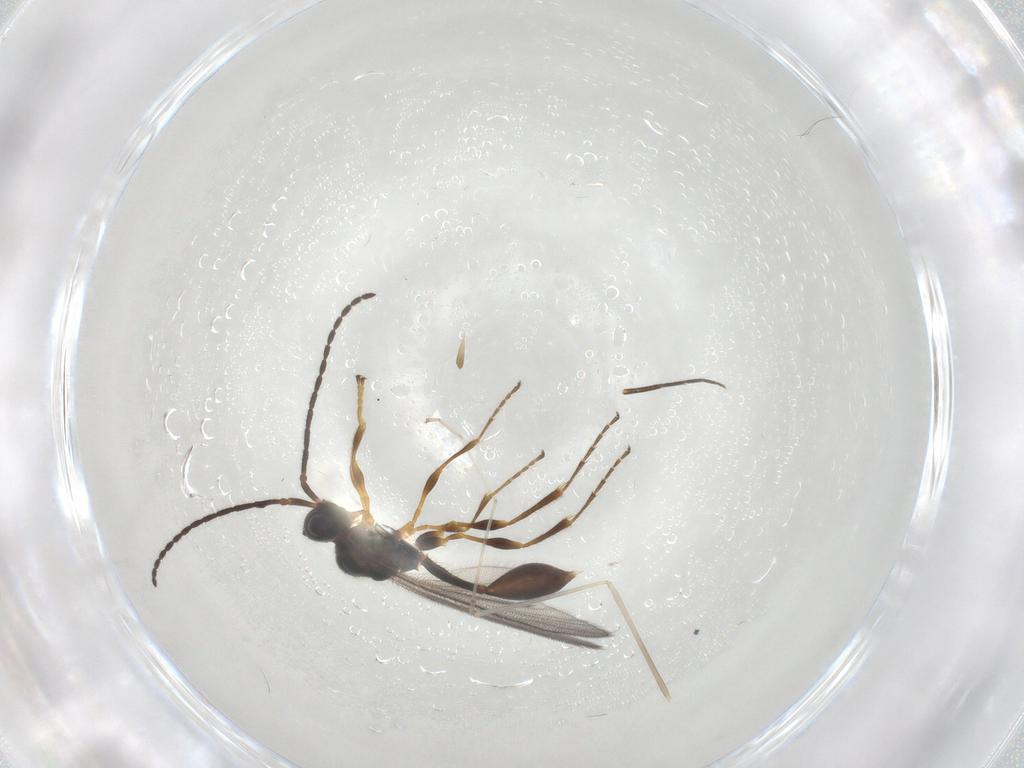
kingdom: Animalia
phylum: Arthropoda
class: Insecta
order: Hymenoptera
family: Diapriidae
